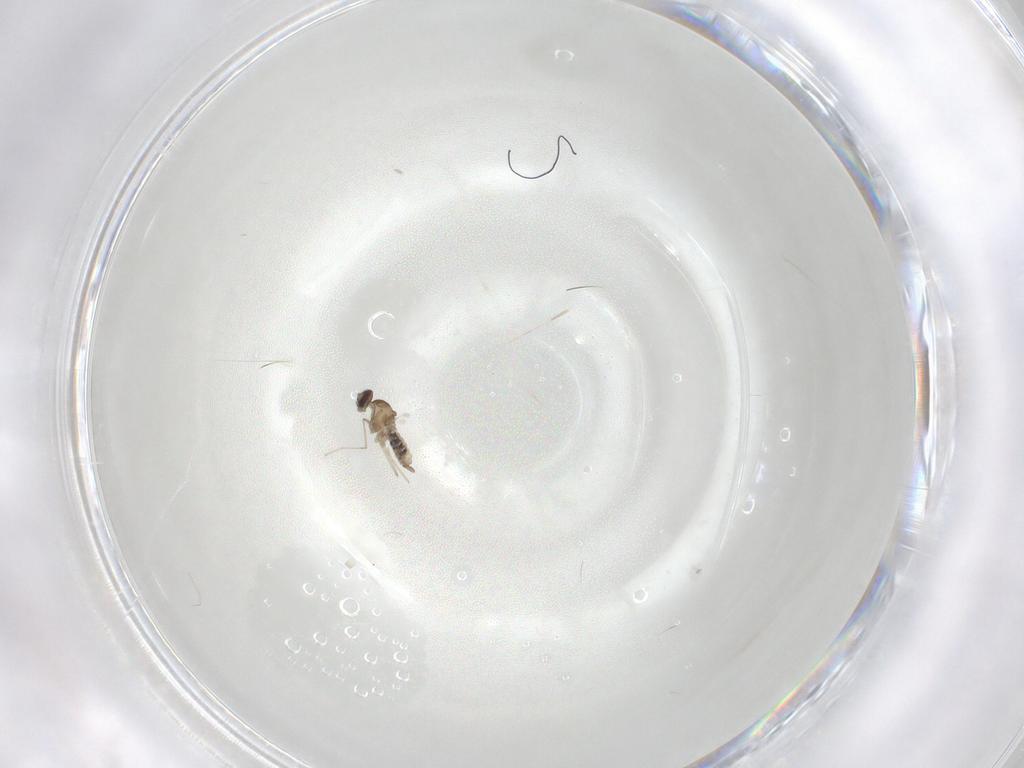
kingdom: Animalia
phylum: Arthropoda
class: Insecta
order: Diptera
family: Cecidomyiidae
